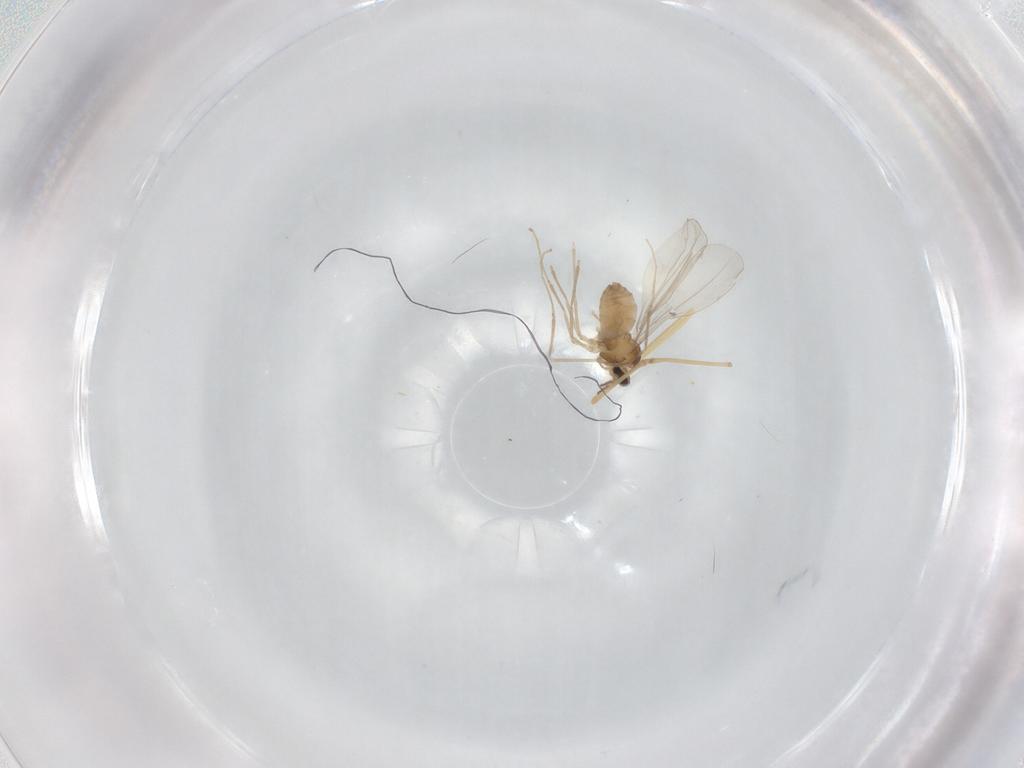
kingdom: Animalia
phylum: Arthropoda
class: Insecta
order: Diptera
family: Cecidomyiidae
